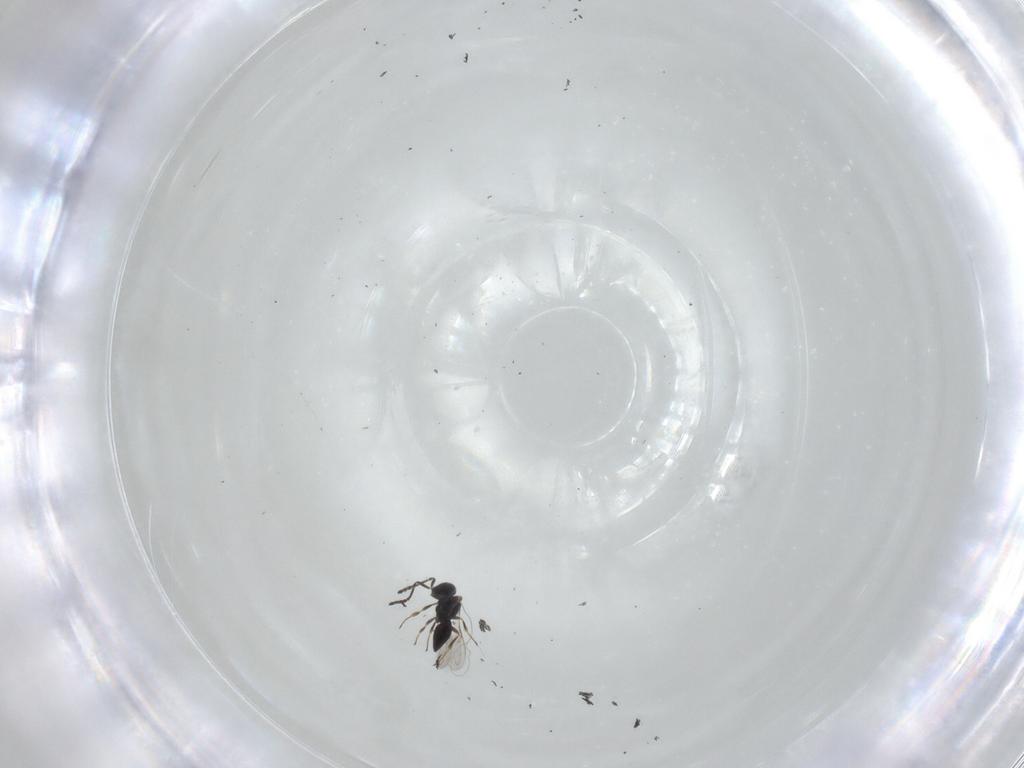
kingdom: Animalia
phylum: Arthropoda
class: Insecta
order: Hymenoptera
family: Scelionidae
